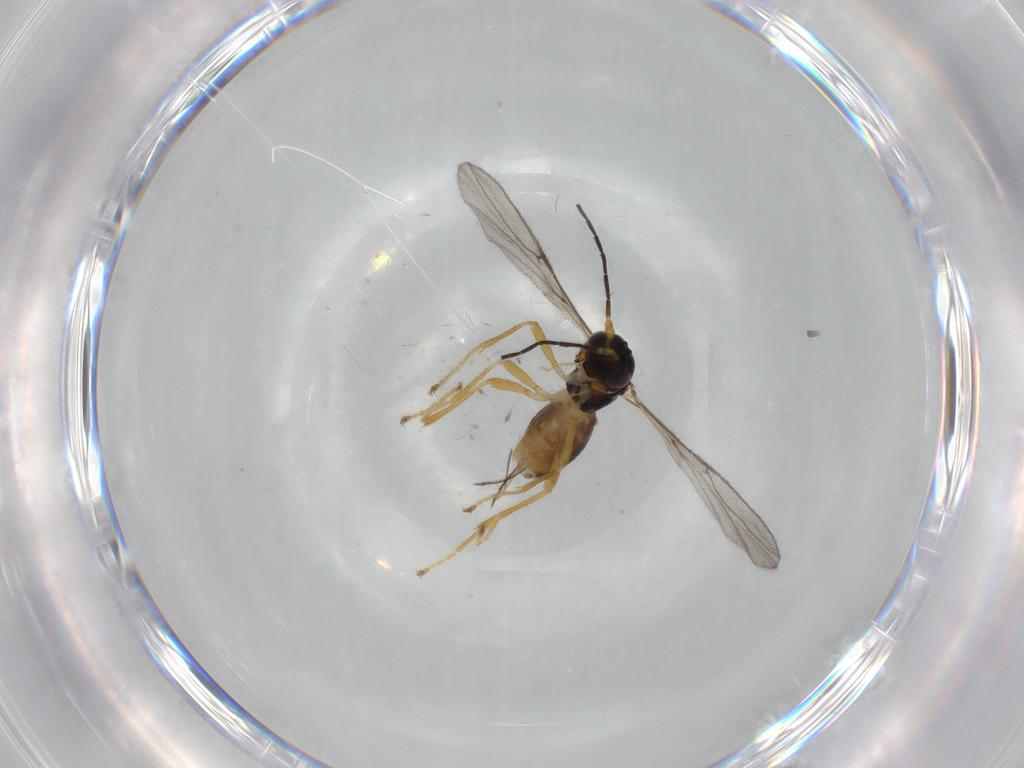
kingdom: Animalia
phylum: Arthropoda
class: Insecta
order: Hymenoptera
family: Braconidae
